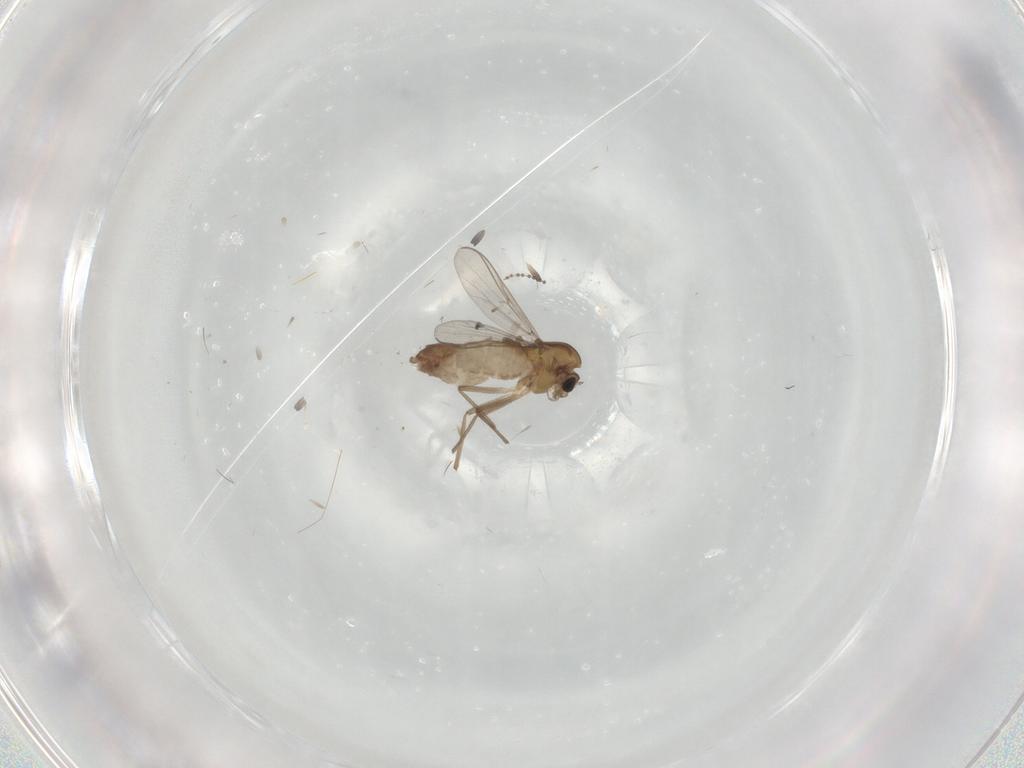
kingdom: Animalia
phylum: Arthropoda
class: Insecta
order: Diptera
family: Chironomidae
